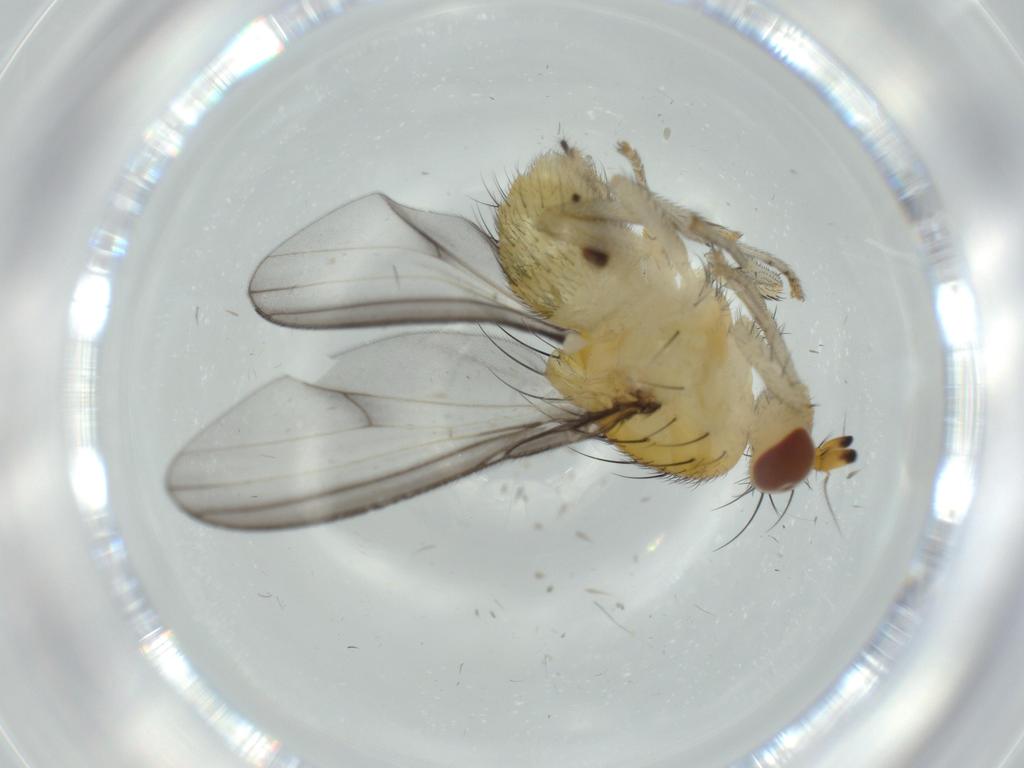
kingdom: Animalia
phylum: Arthropoda
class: Insecta
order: Diptera
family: Lauxaniidae
